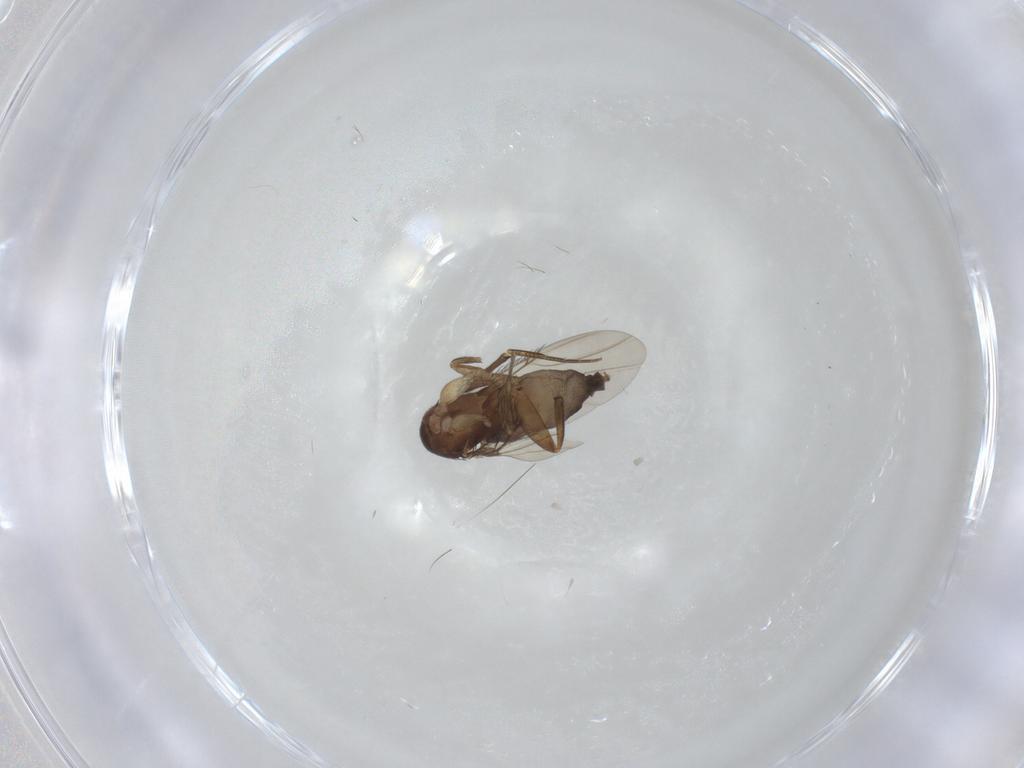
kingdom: Animalia
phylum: Arthropoda
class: Insecta
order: Diptera
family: Phoridae
